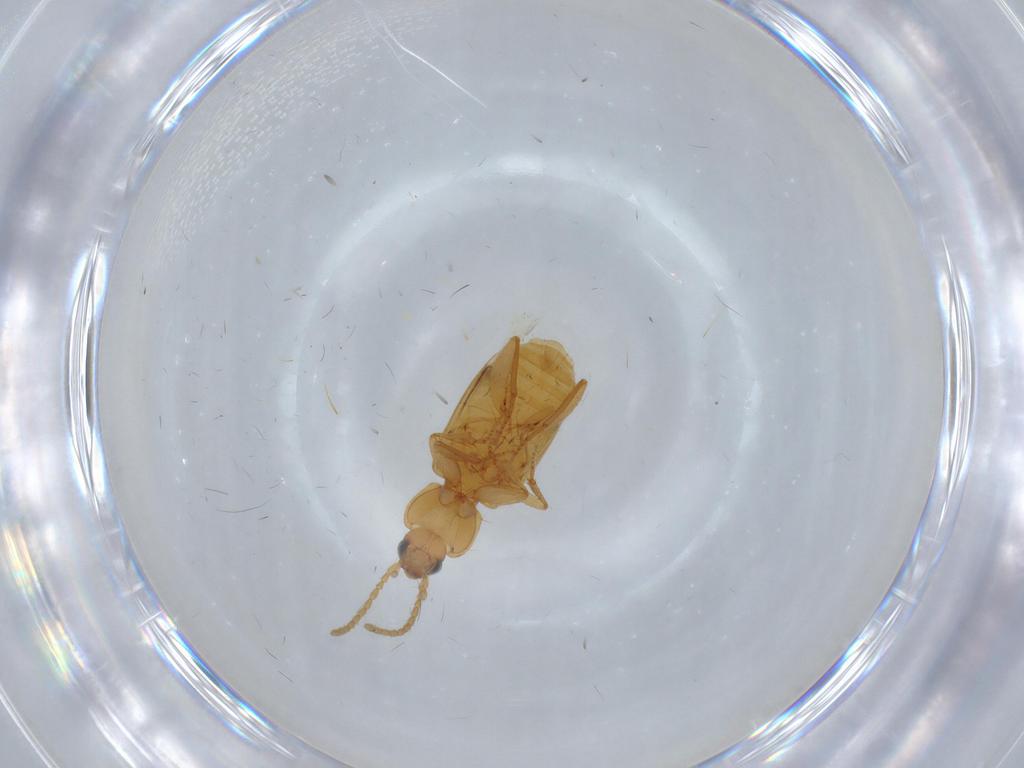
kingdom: Animalia
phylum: Arthropoda
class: Insecta
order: Coleoptera
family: Carabidae
